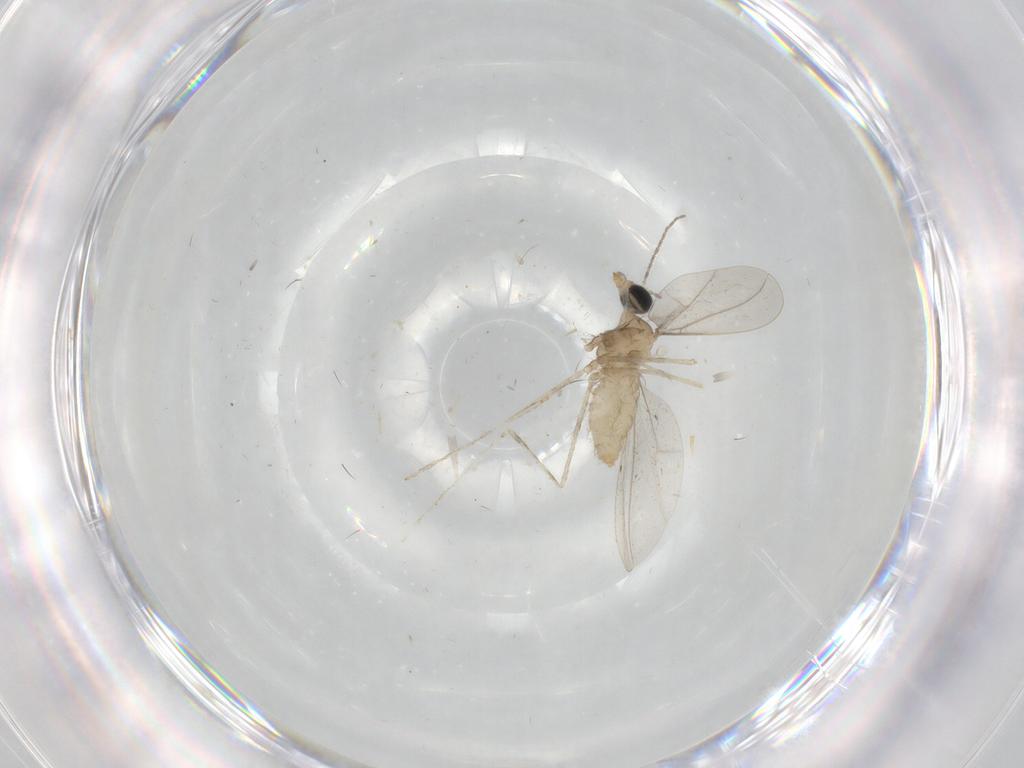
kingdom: Animalia
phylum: Arthropoda
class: Insecta
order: Diptera
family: Cecidomyiidae
